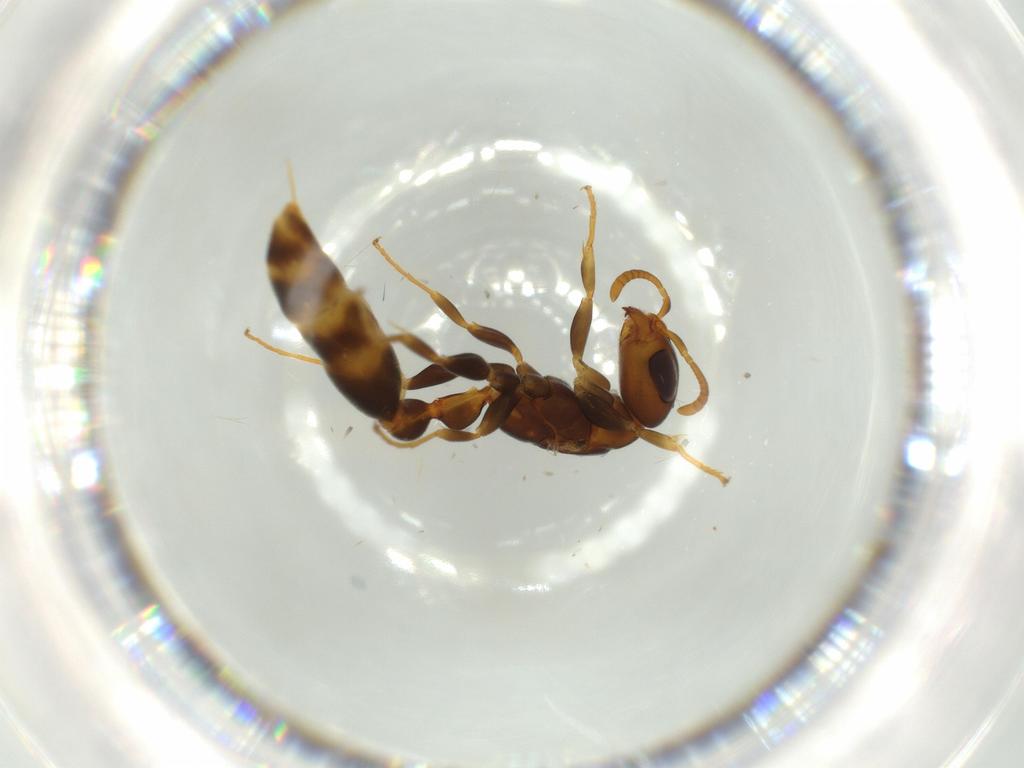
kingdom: Animalia
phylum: Arthropoda
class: Insecta
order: Hymenoptera
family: Formicidae
